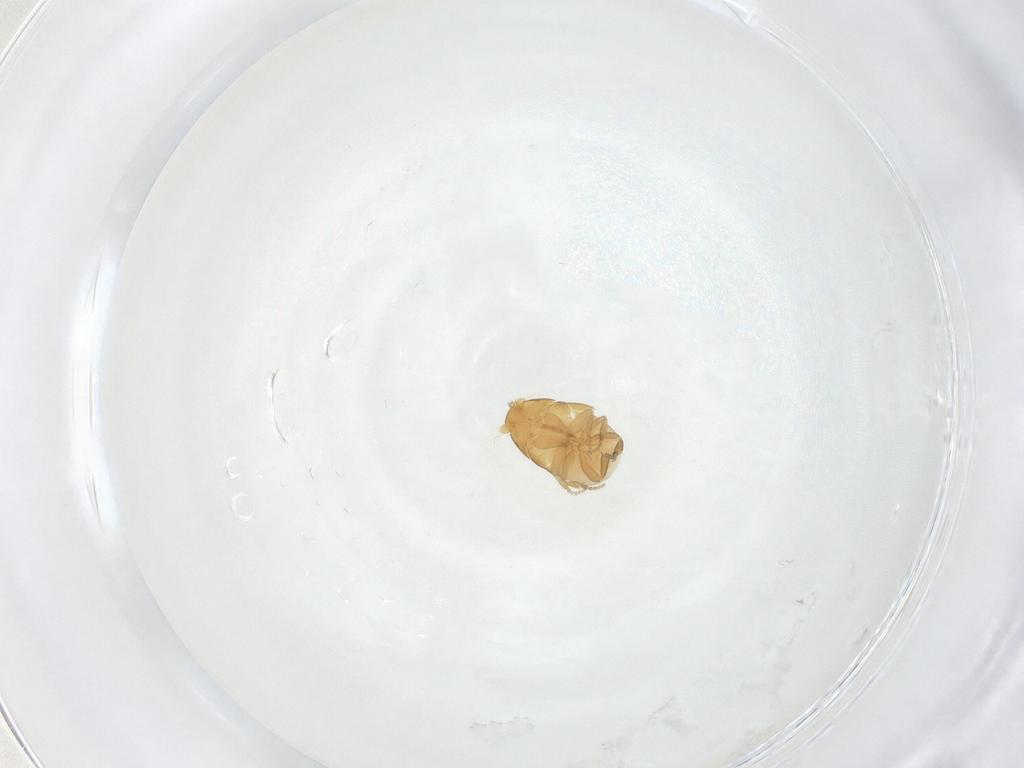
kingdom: Animalia
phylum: Arthropoda
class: Insecta
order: Diptera
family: Phoridae
